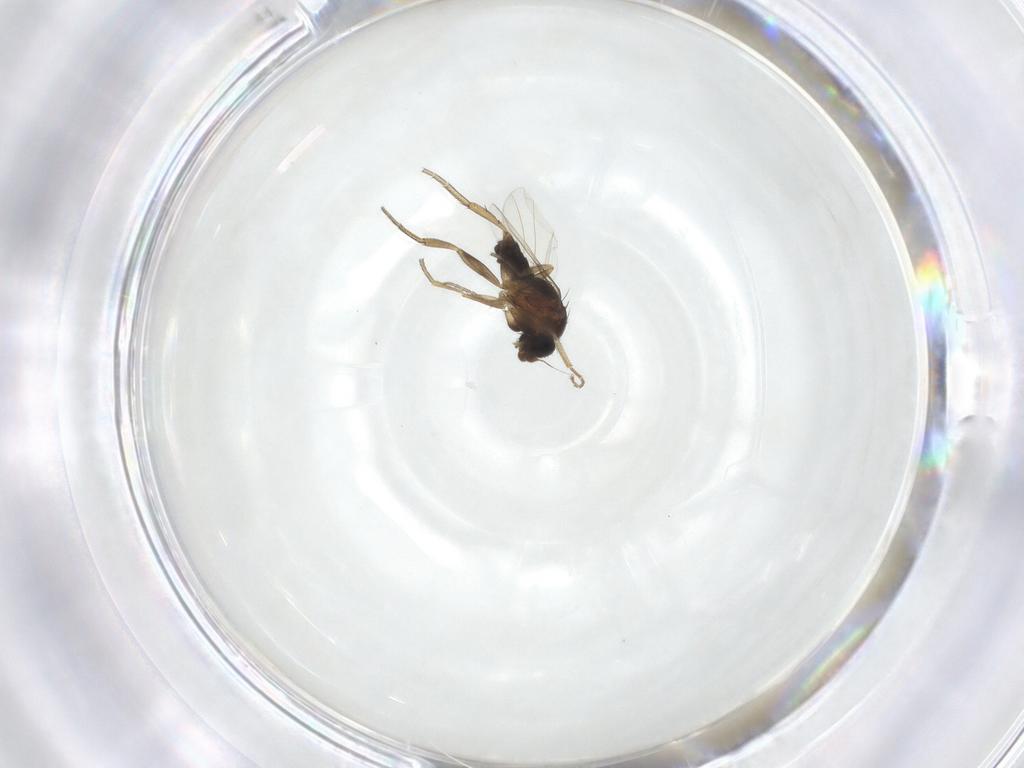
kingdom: Animalia
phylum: Arthropoda
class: Insecta
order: Diptera
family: Phoridae
